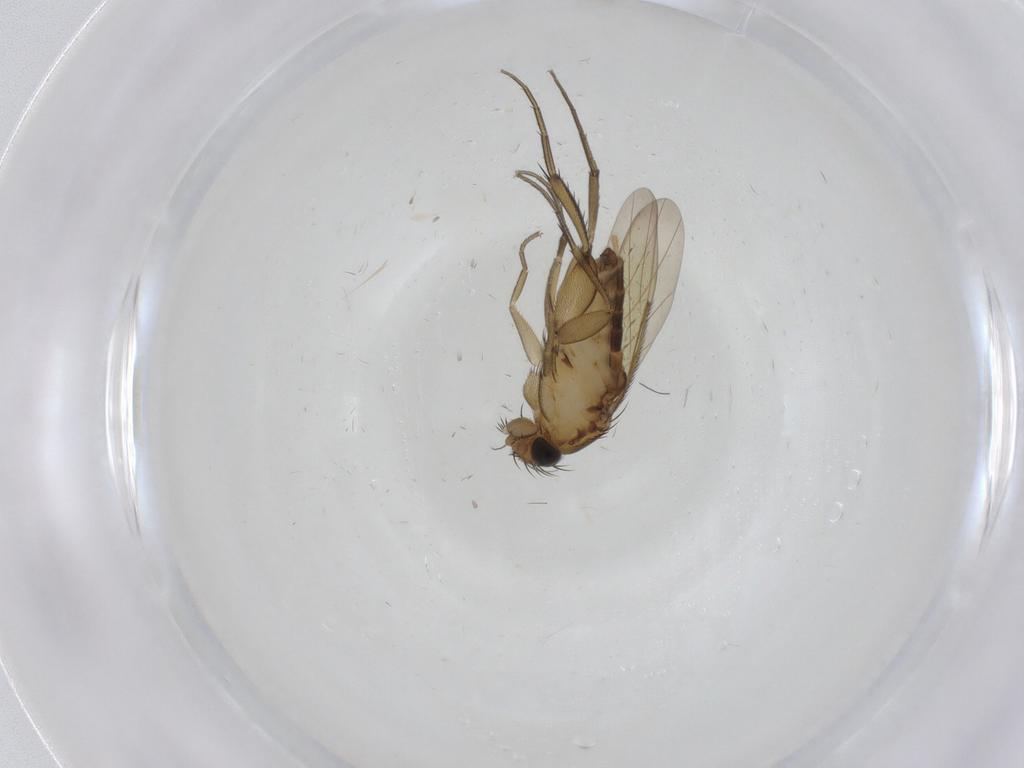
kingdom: Animalia
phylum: Arthropoda
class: Insecta
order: Diptera
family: Phoridae
